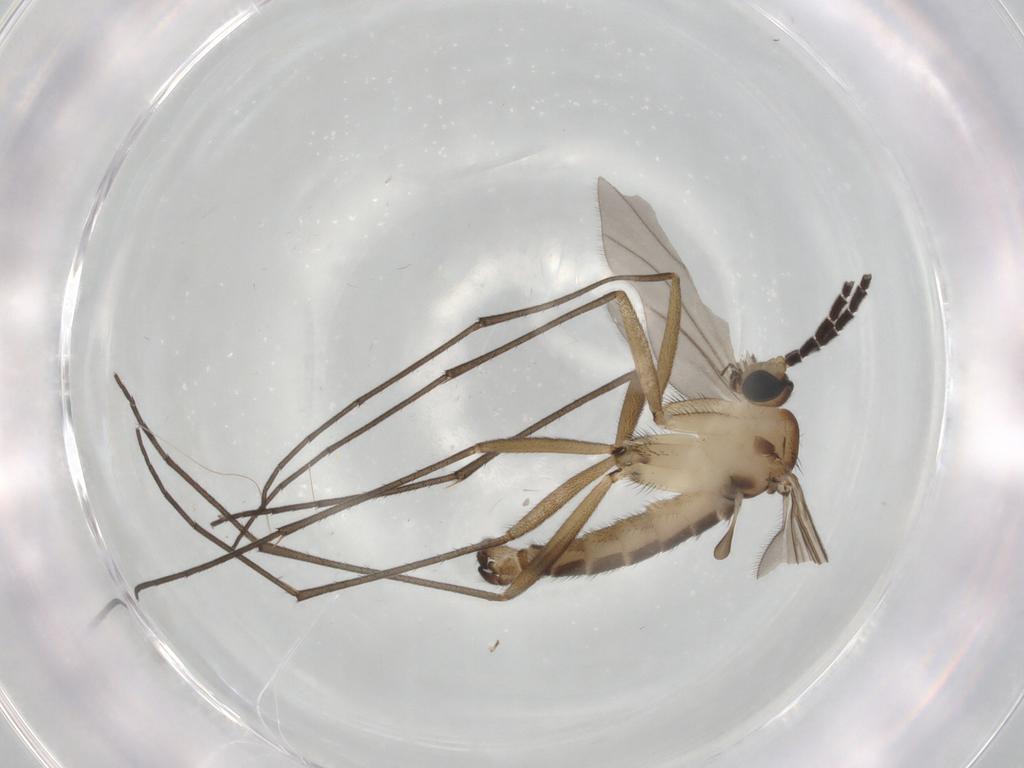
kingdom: Animalia
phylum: Arthropoda
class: Insecta
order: Diptera
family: Sciaridae
